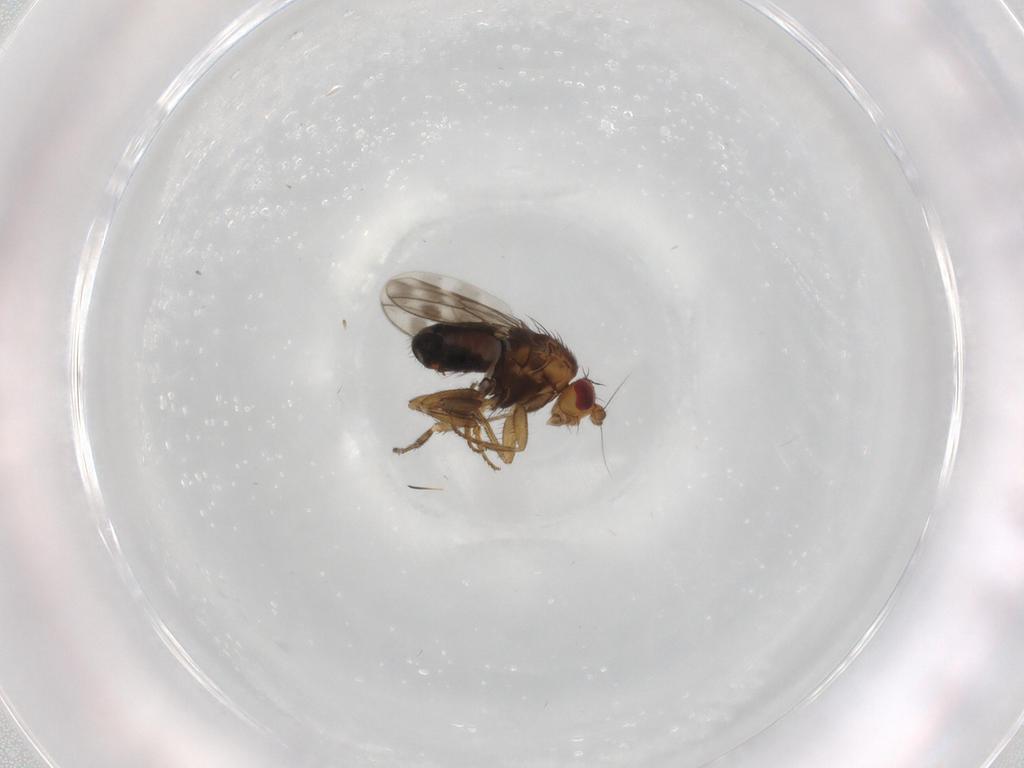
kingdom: Animalia
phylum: Arthropoda
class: Insecta
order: Diptera
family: Sphaeroceridae
